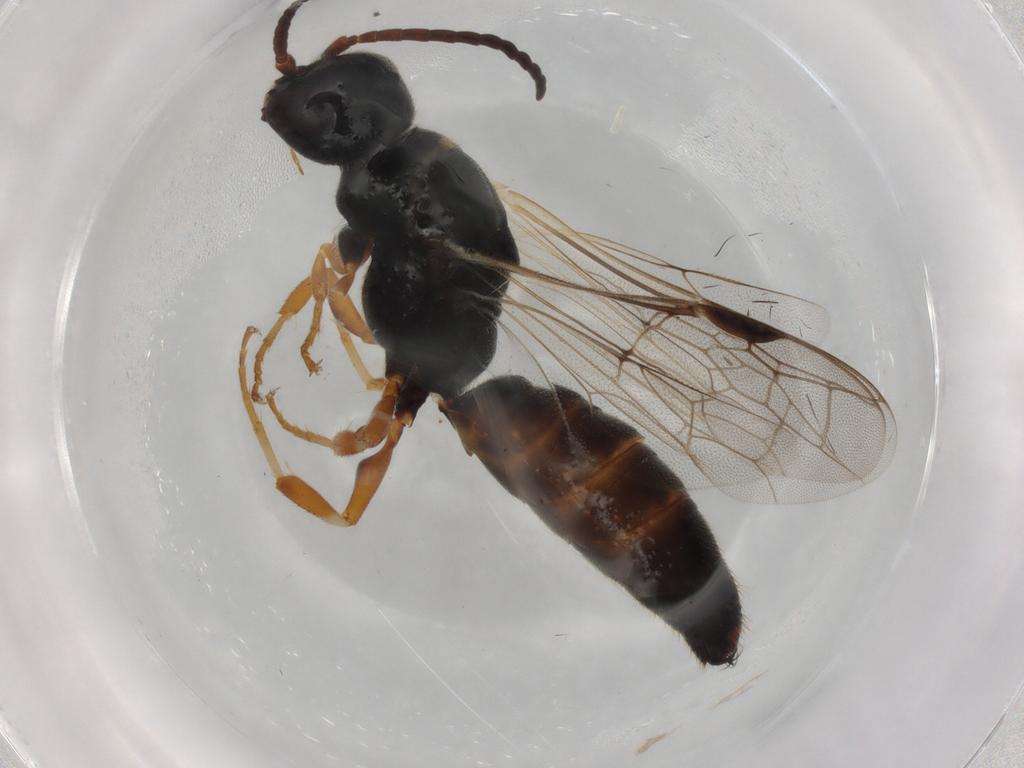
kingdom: Animalia
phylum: Arthropoda
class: Insecta
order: Hymenoptera
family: Thynnidae
